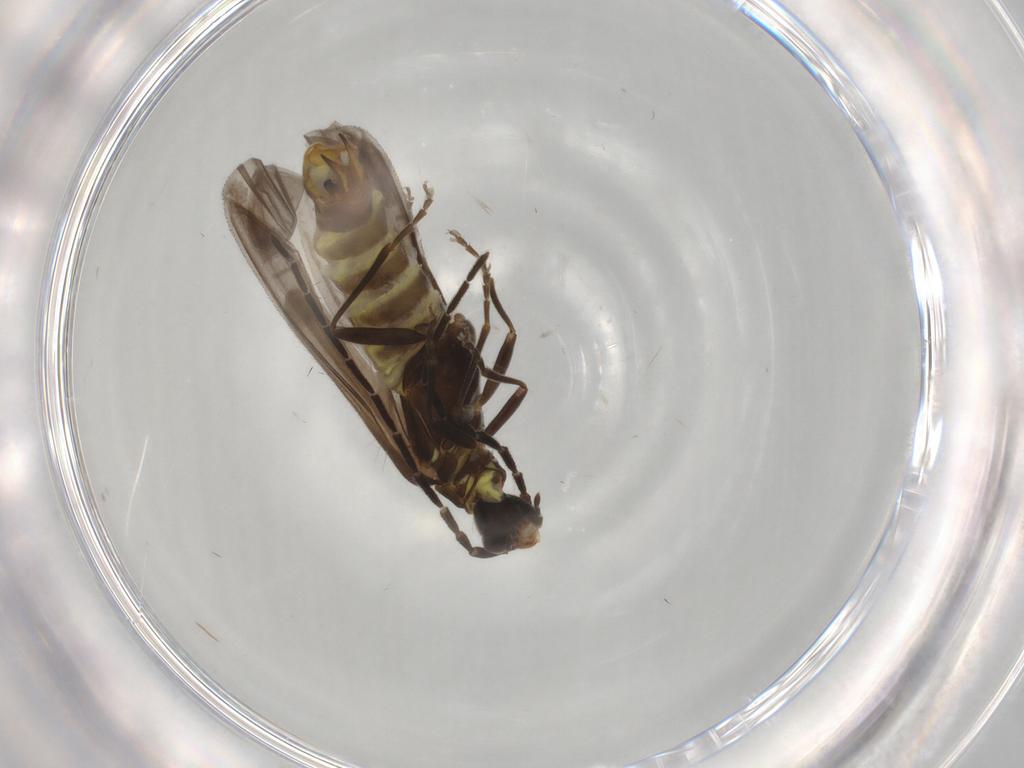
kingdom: Animalia
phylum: Arthropoda
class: Insecta
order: Coleoptera
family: Cantharidae
